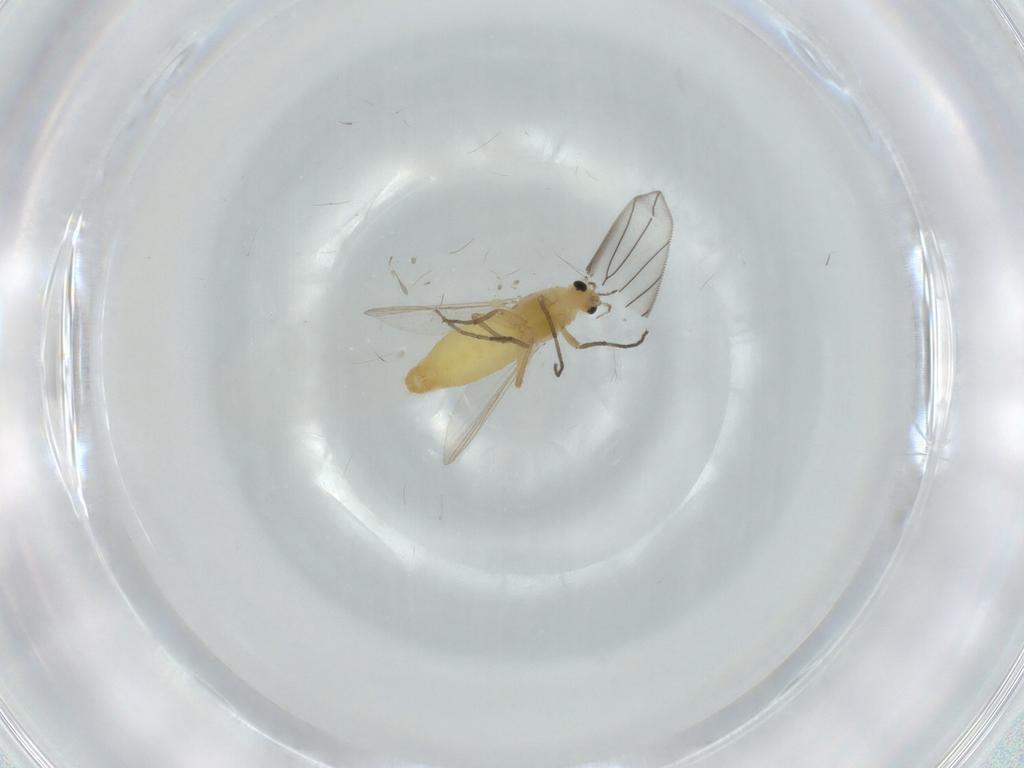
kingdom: Animalia
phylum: Arthropoda
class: Insecta
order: Diptera
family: Chironomidae
